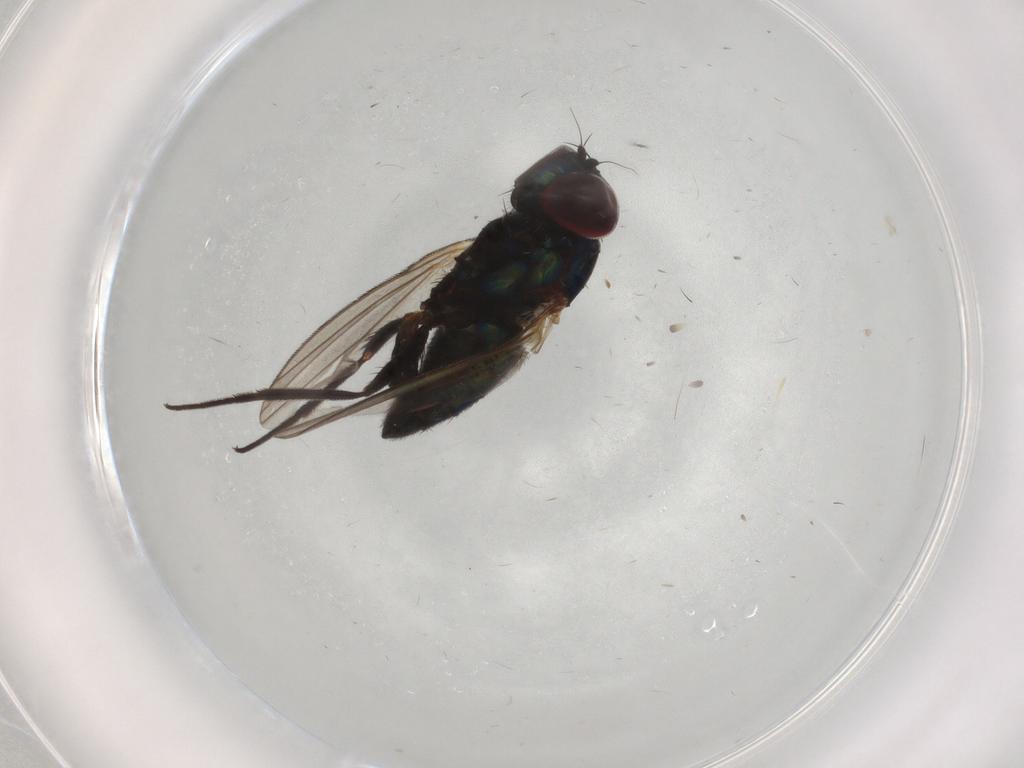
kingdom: Animalia
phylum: Arthropoda
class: Insecta
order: Diptera
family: Dolichopodidae
